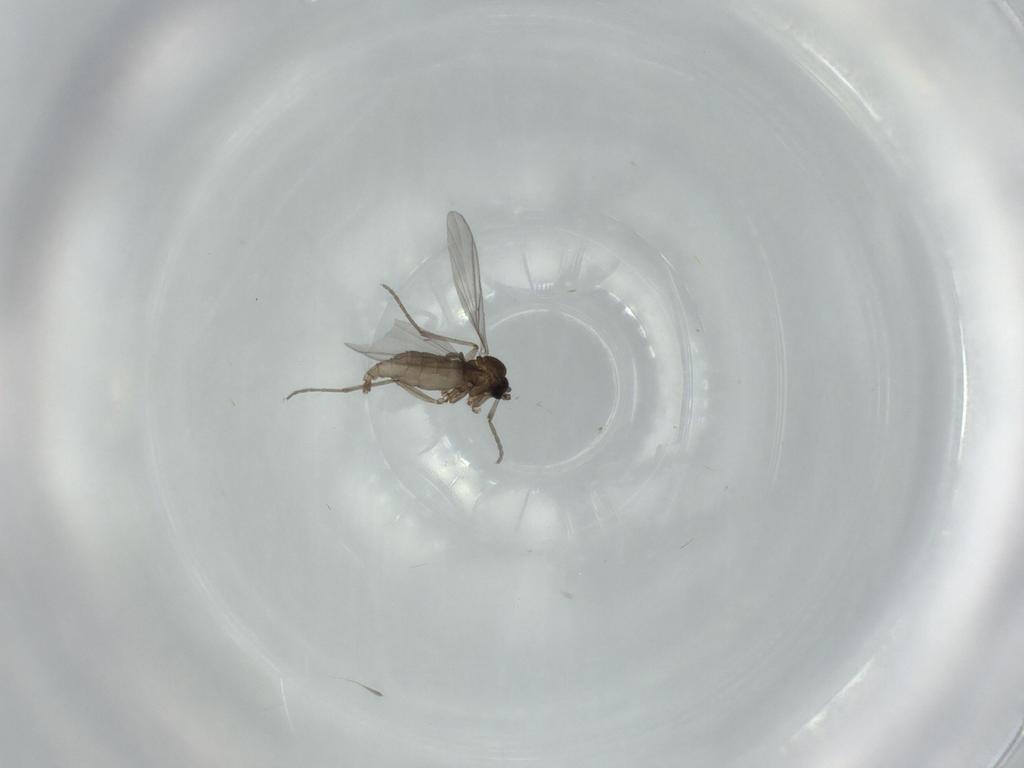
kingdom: Animalia
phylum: Arthropoda
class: Insecta
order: Diptera
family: Sciaridae
